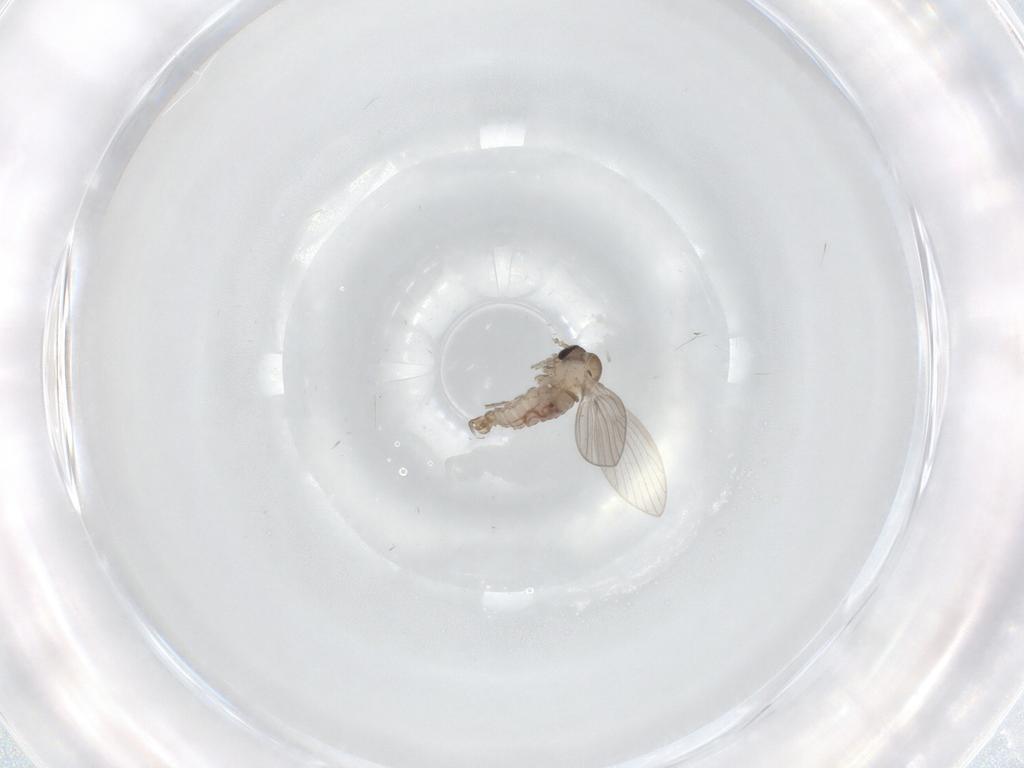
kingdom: Animalia
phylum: Arthropoda
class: Insecta
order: Diptera
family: Psychodidae
